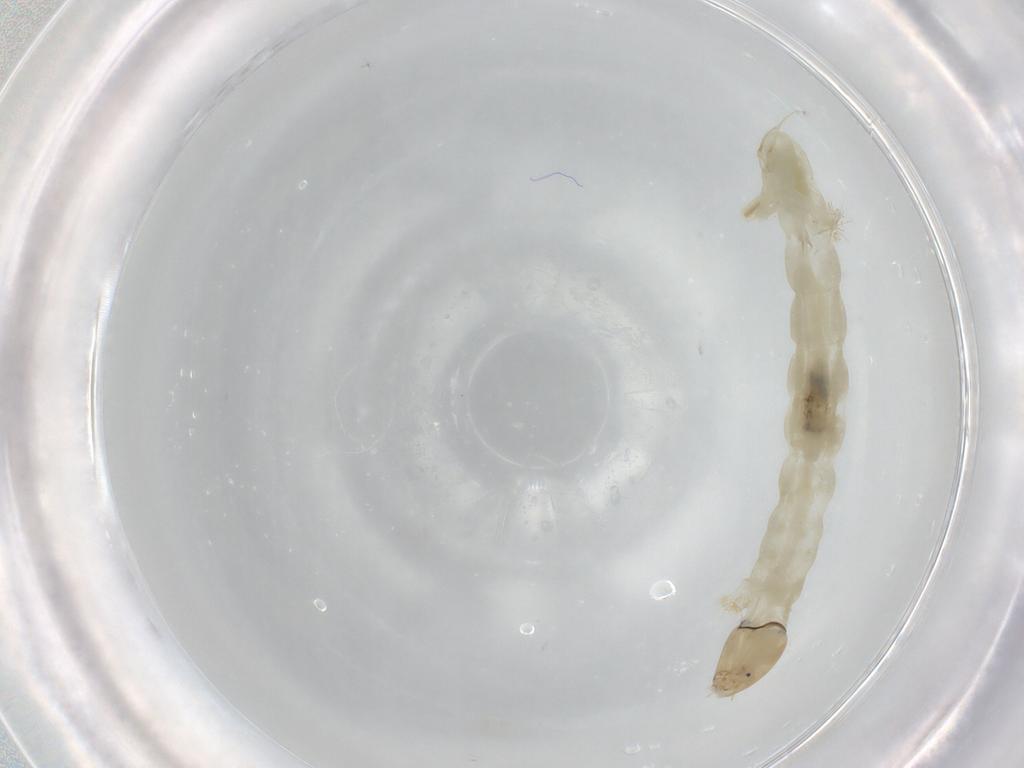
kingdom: Animalia
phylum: Arthropoda
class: Insecta
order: Diptera
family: Chironomidae
